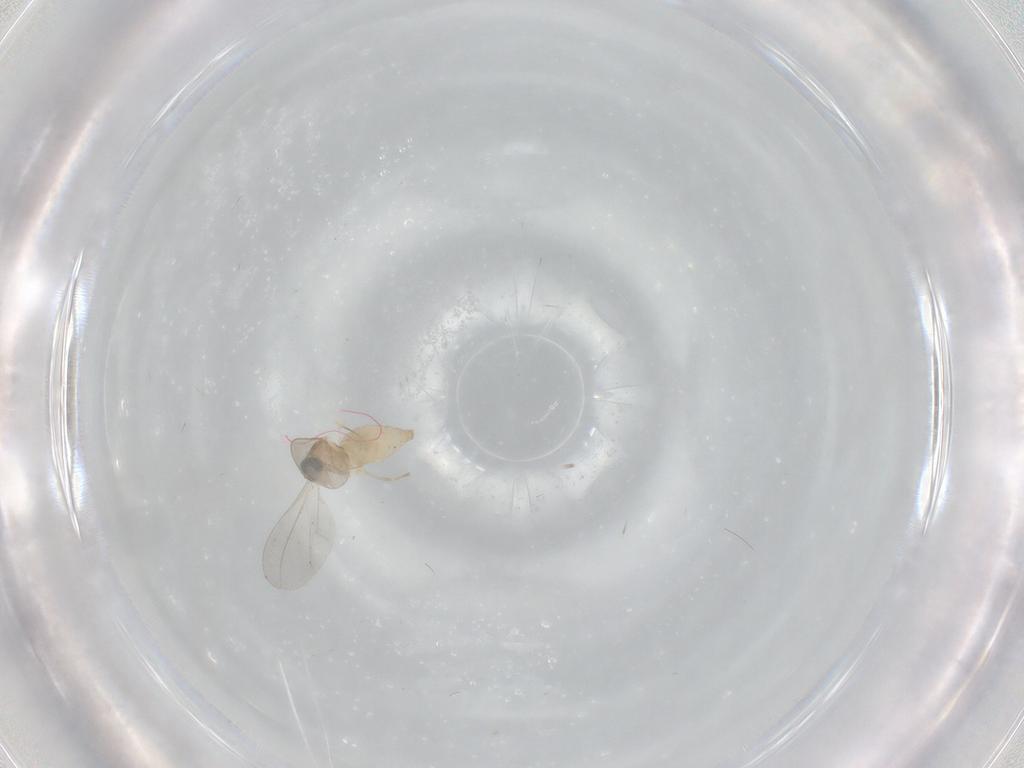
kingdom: Animalia
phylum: Arthropoda
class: Insecta
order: Diptera
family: Cecidomyiidae
